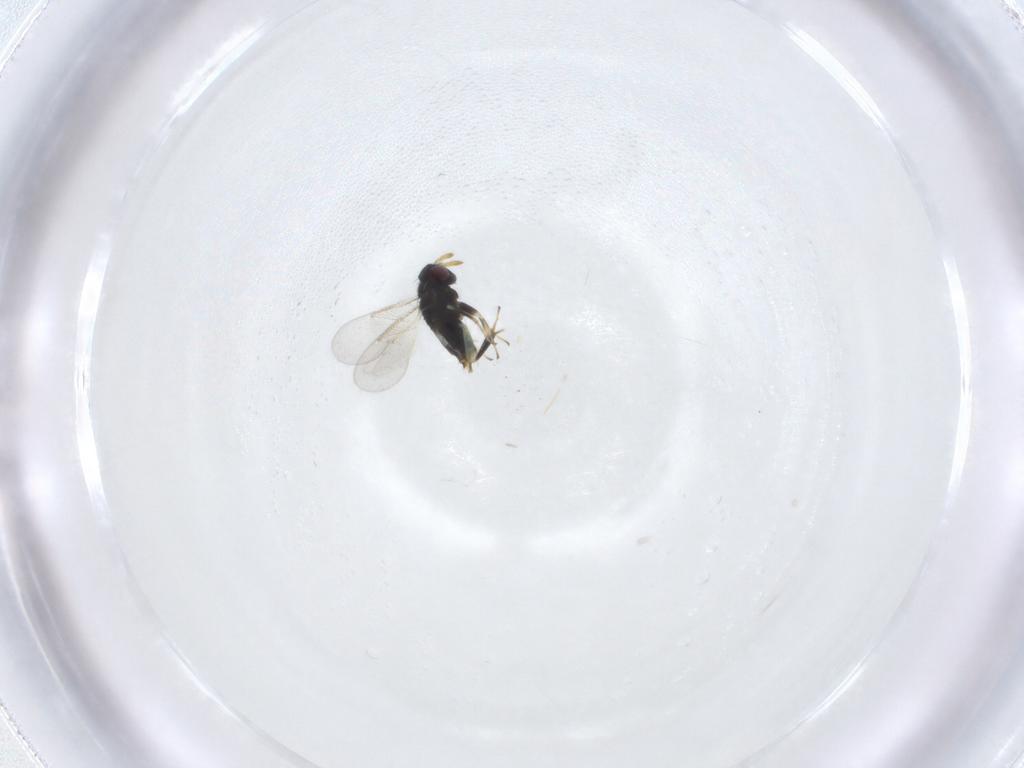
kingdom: Animalia
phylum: Arthropoda
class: Insecta
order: Hymenoptera
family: Aphelinidae
